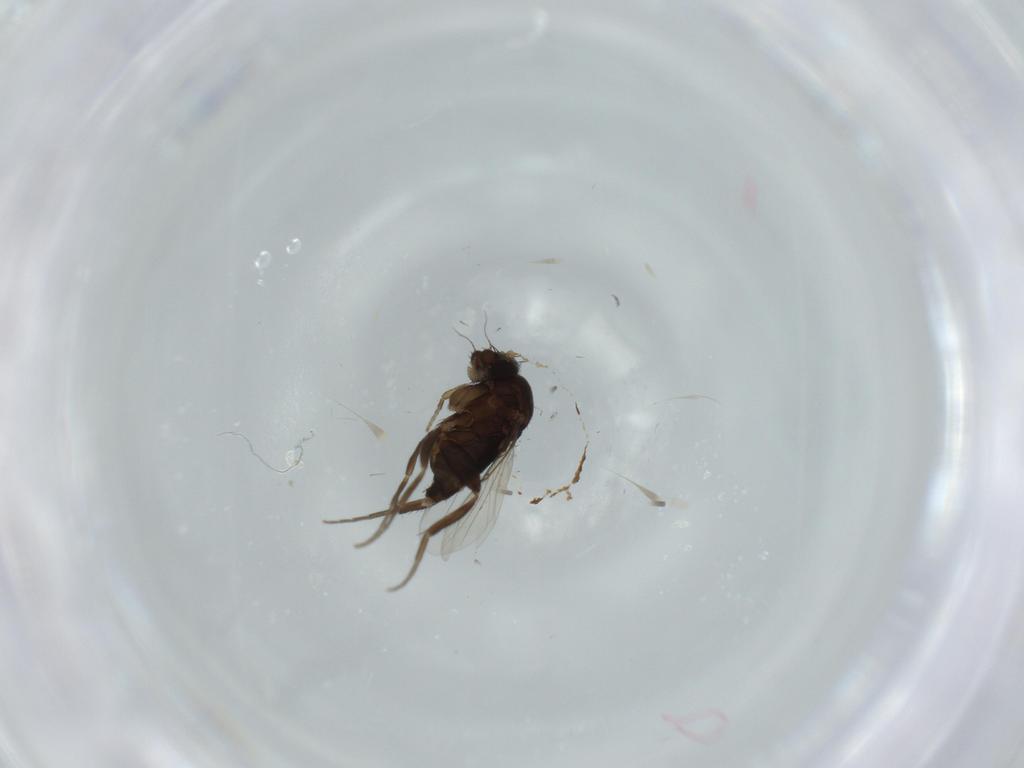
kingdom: Animalia
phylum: Arthropoda
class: Insecta
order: Diptera
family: Phoridae
